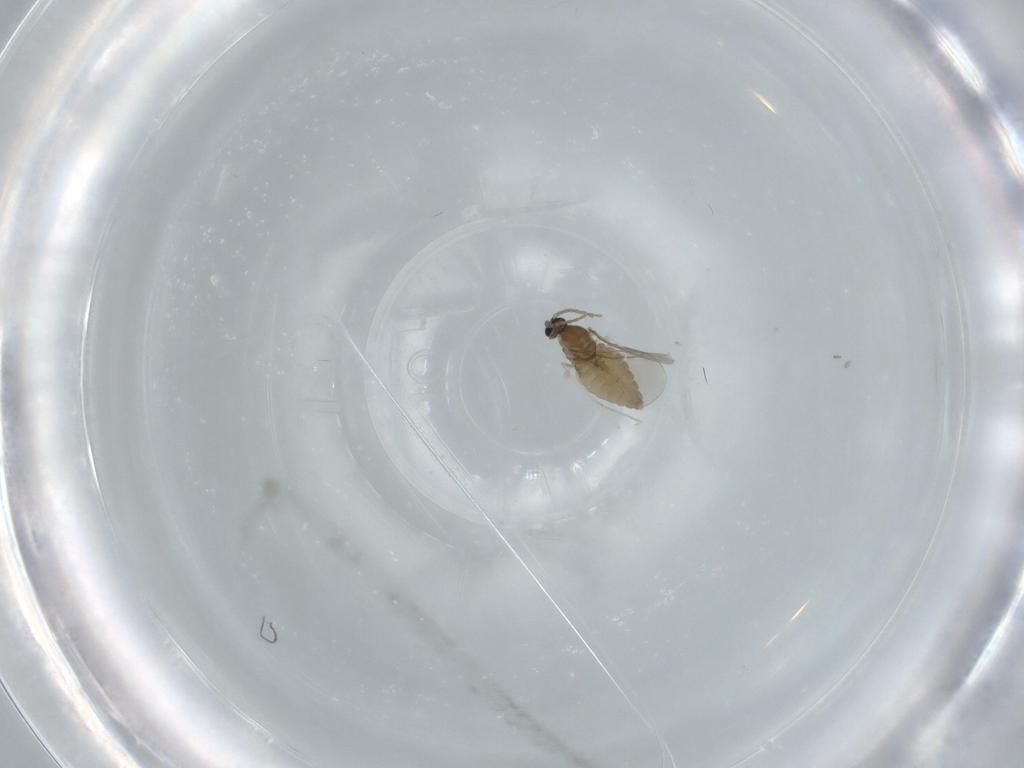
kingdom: Animalia
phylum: Arthropoda
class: Insecta
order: Diptera
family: Cecidomyiidae
